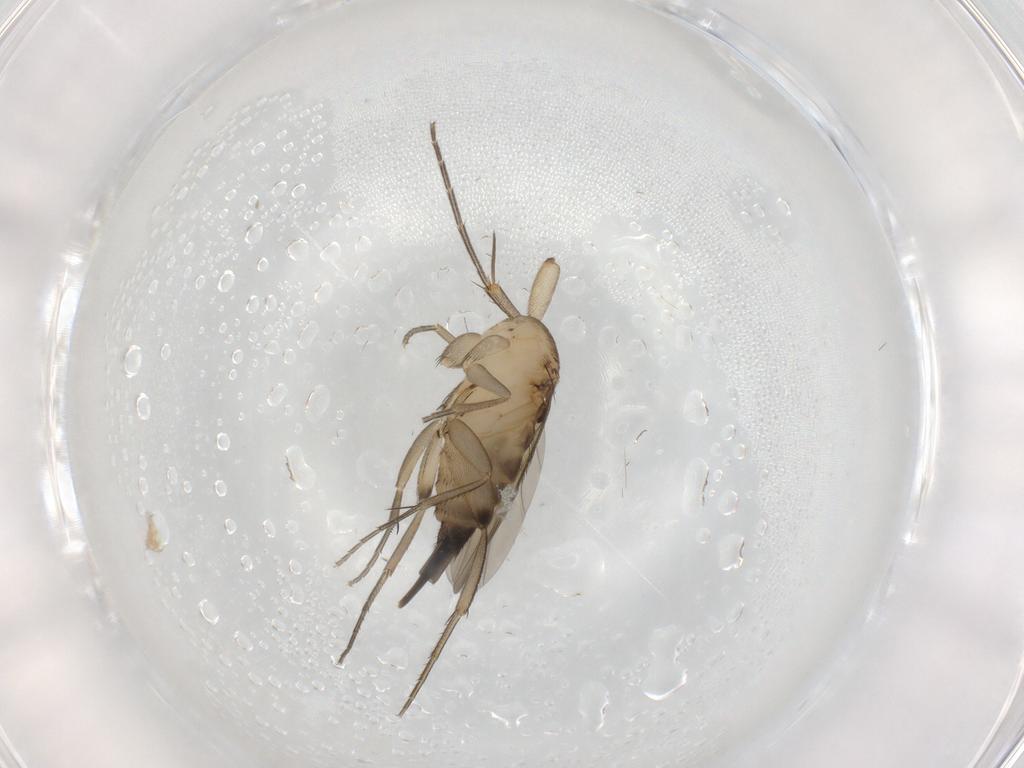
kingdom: Animalia
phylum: Arthropoda
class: Insecta
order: Diptera
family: Mycetophilidae
